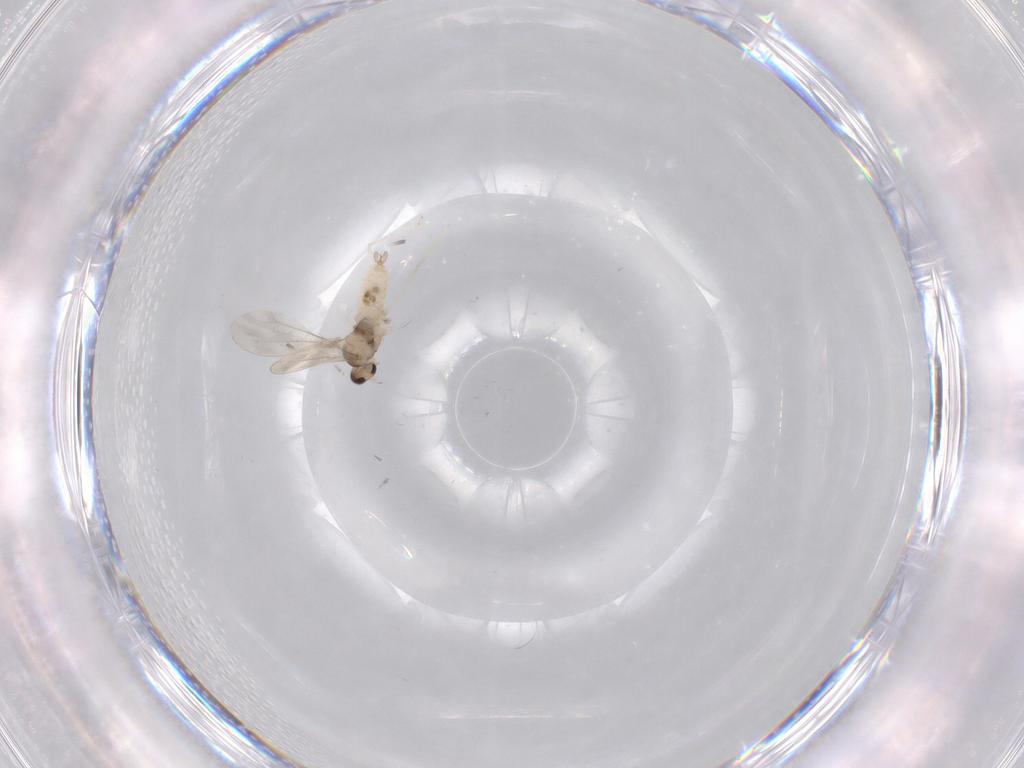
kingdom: Animalia
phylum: Arthropoda
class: Insecta
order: Diptera
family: Cecidomyiidae
